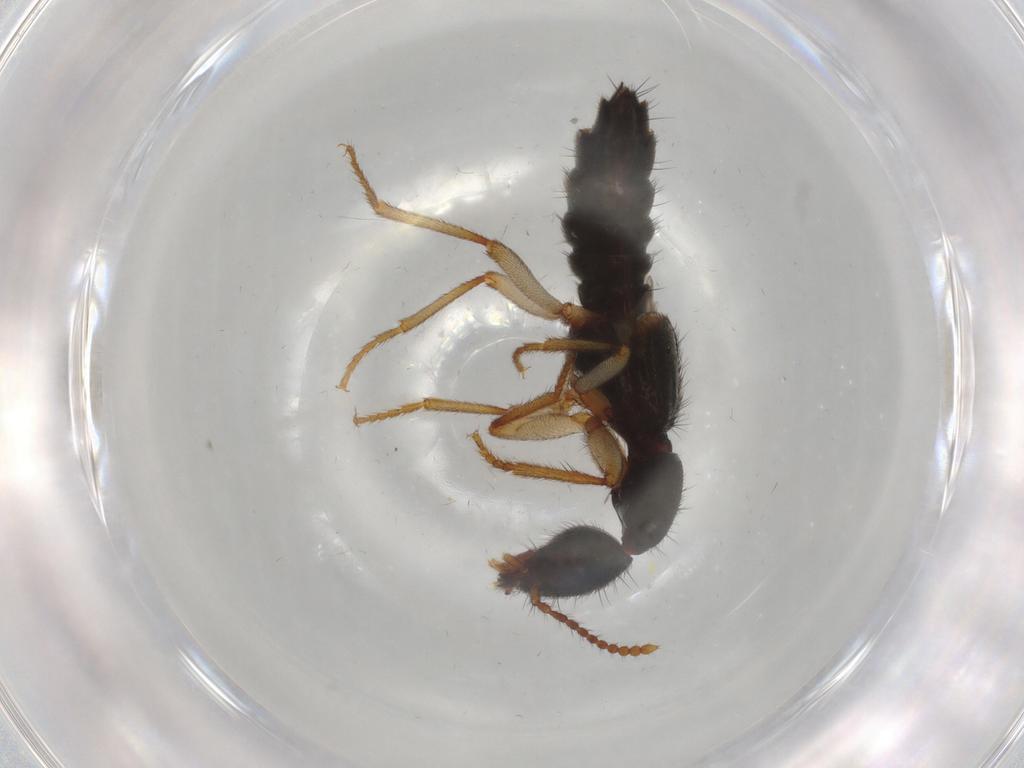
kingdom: Animalia
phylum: Arthropoda
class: Insecta
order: Coleoptera
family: Staphylinidae
